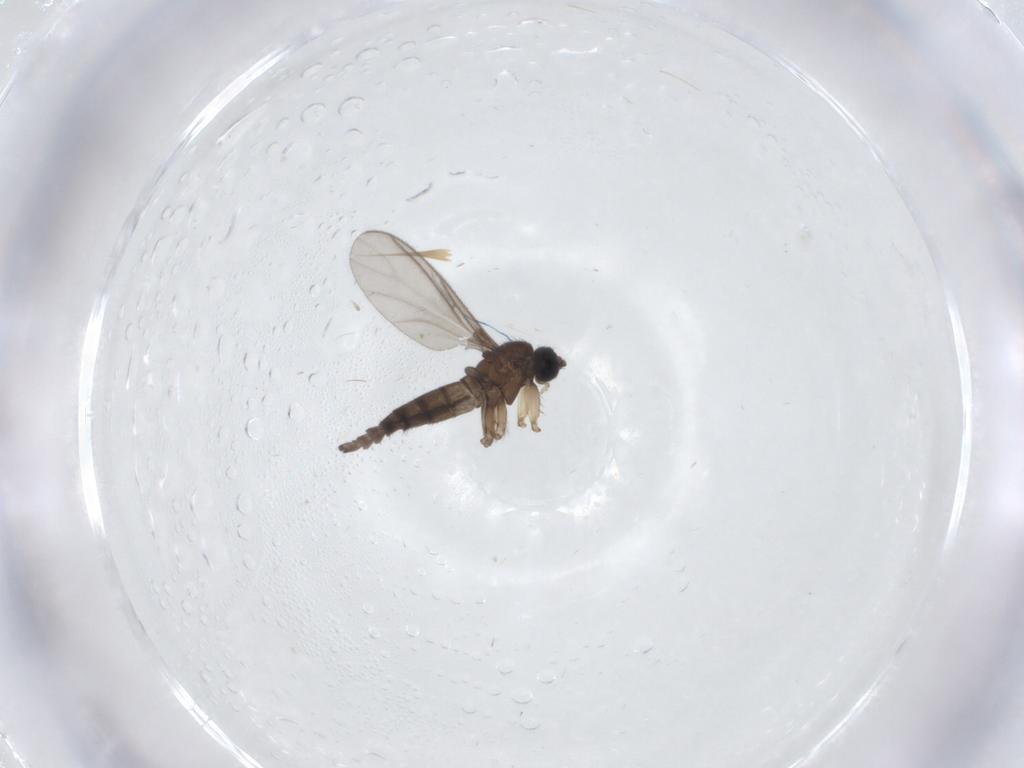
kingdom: Animalia
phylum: Arthropoda
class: Insecta
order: Diptera
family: Sciaridae
